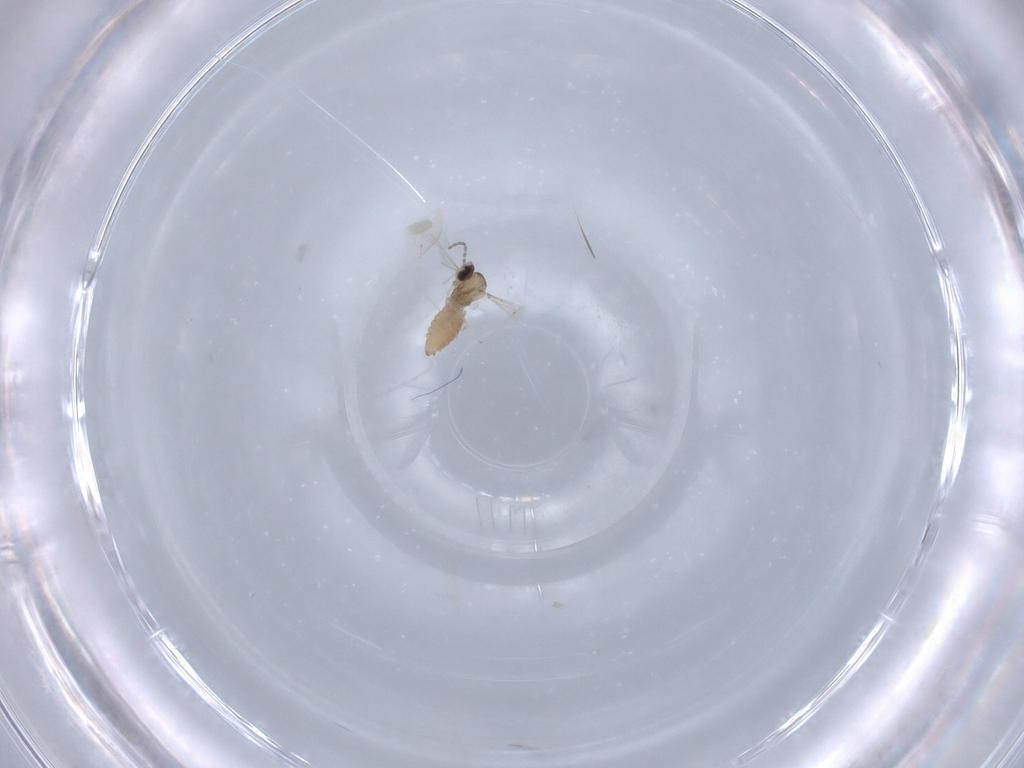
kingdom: Animalia
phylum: Arthropoda
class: Insecta
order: Diptera
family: Cecidomyiidae
